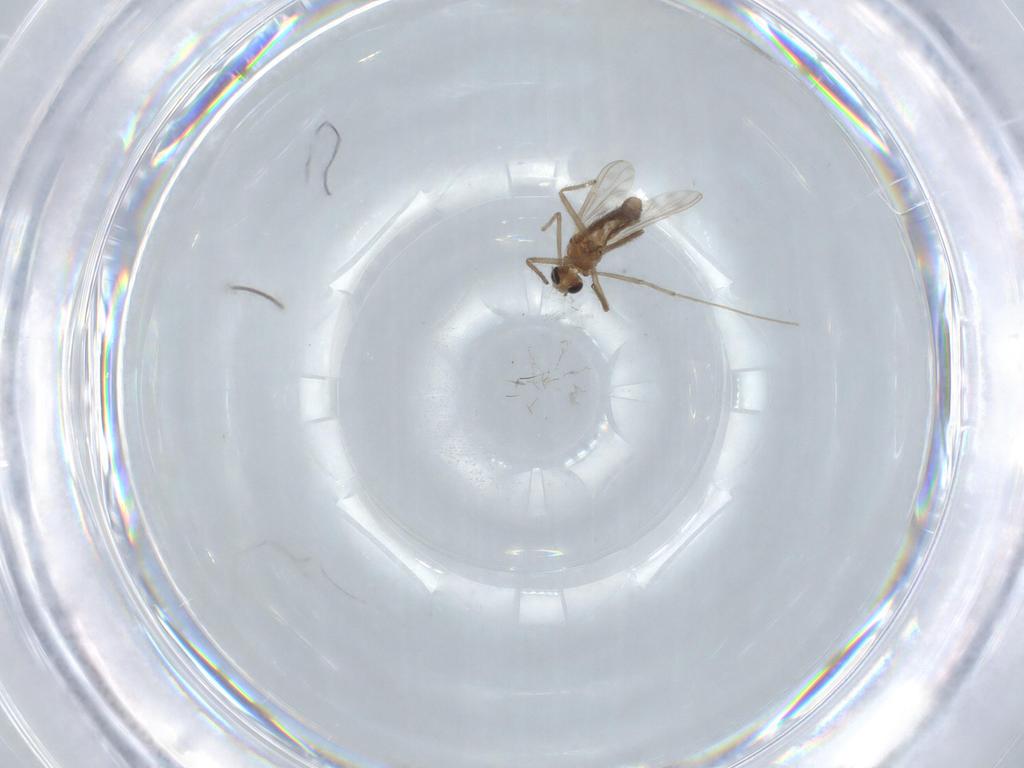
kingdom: Animalia
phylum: Arthropoda
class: Insecta
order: Diptera
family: Chironomidae
